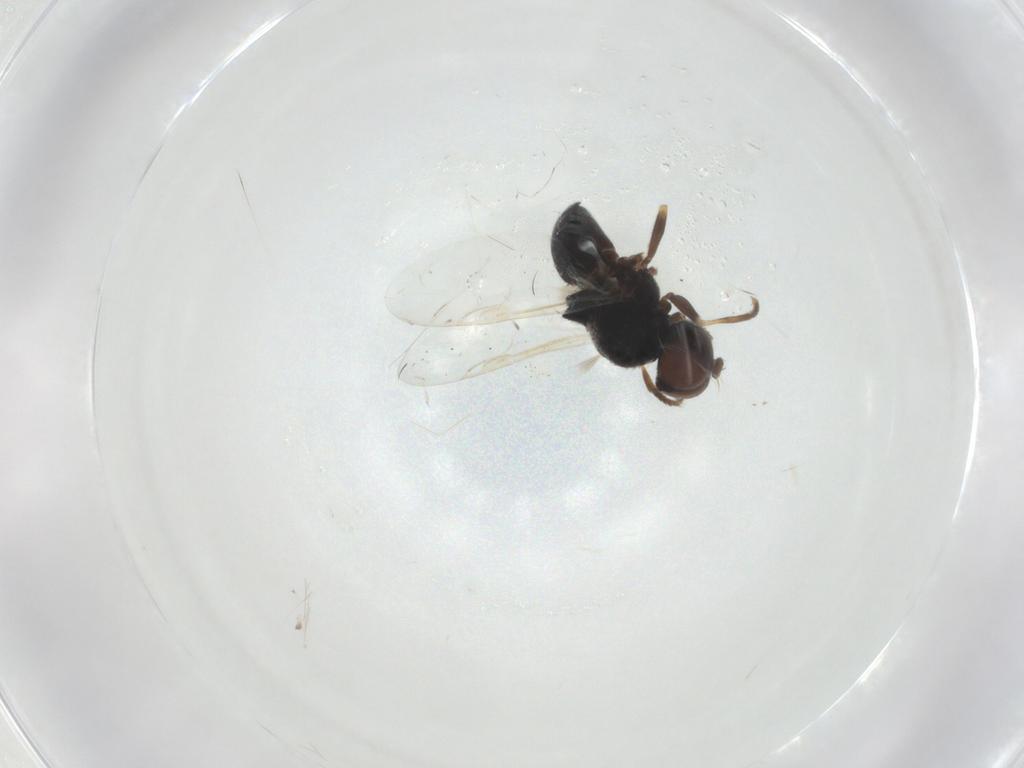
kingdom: Animalia
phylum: Arthropoda
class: Insecta
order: Diptera
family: Stratiomyidae
